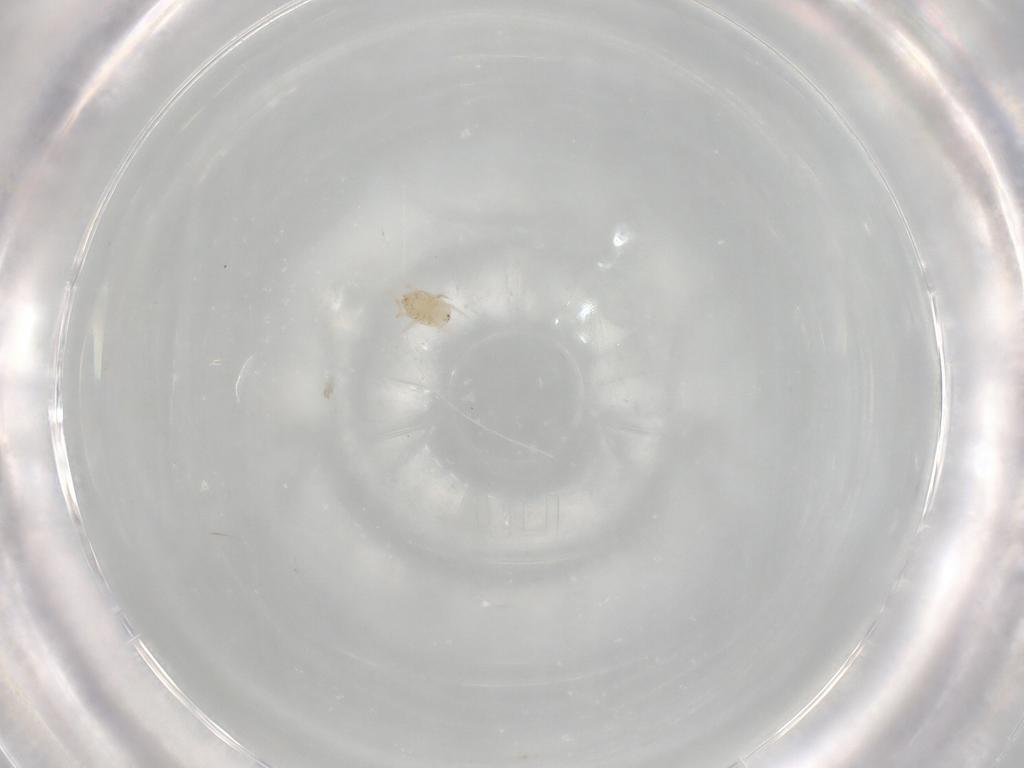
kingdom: Animalia
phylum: Arthropoda
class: Arachnida
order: Mesostigmata
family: Melicharidae
